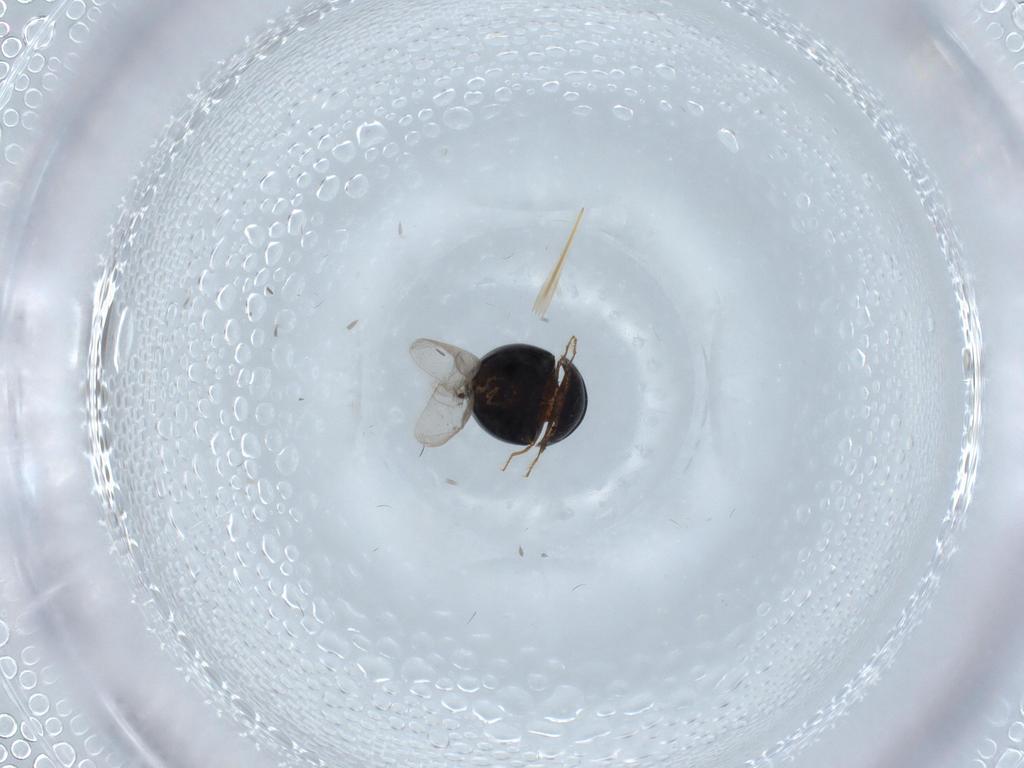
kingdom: Animalia
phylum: Arthropoda
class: Insecta
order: Coleoptera
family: Clambidae
